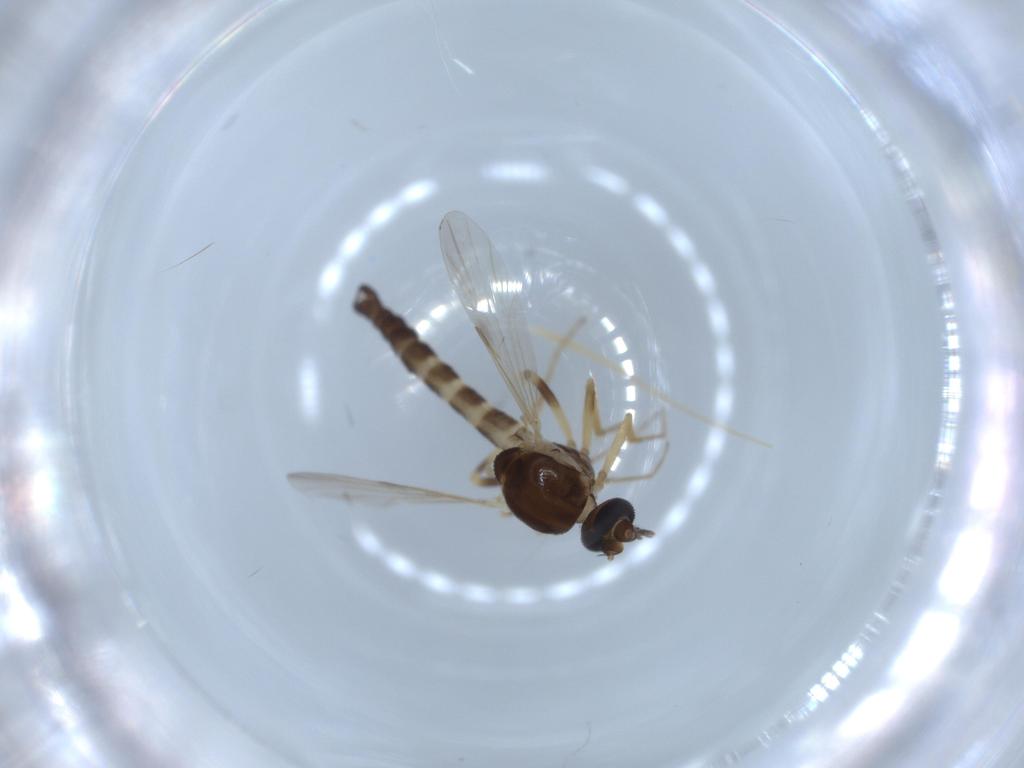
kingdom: Animalia
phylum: Arthropoda
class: Insecta
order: Diptera
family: Ceratopogonidae
